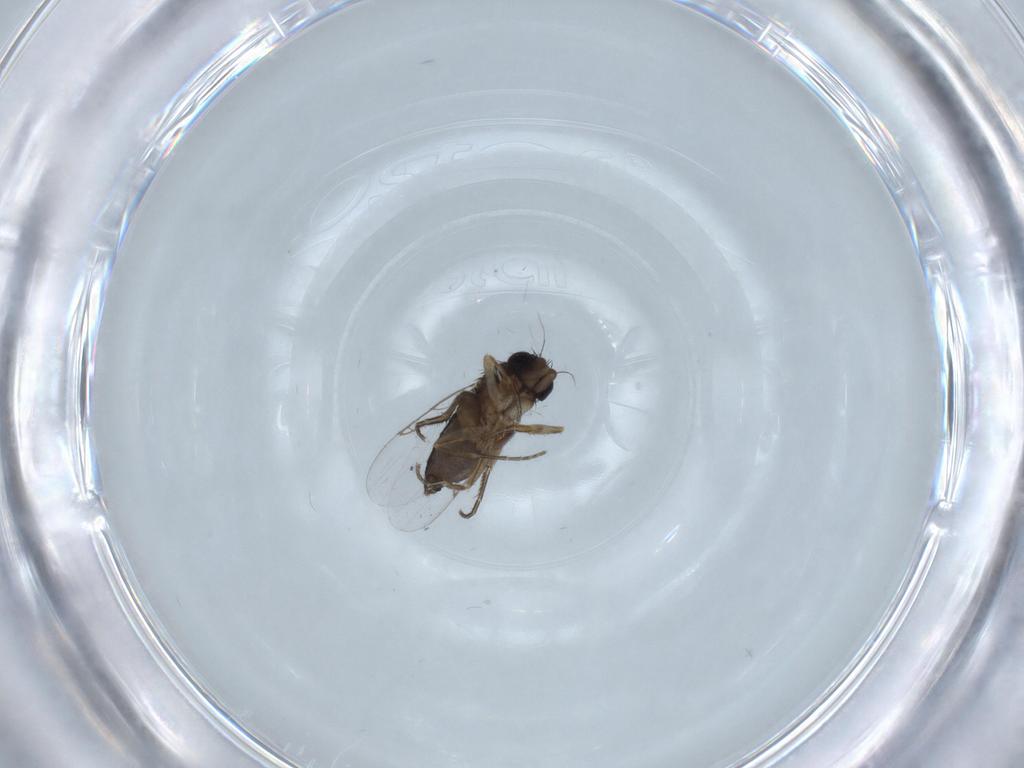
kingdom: Animalia
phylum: Arthropoda
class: Insecta
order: Diptera
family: Phoridae
